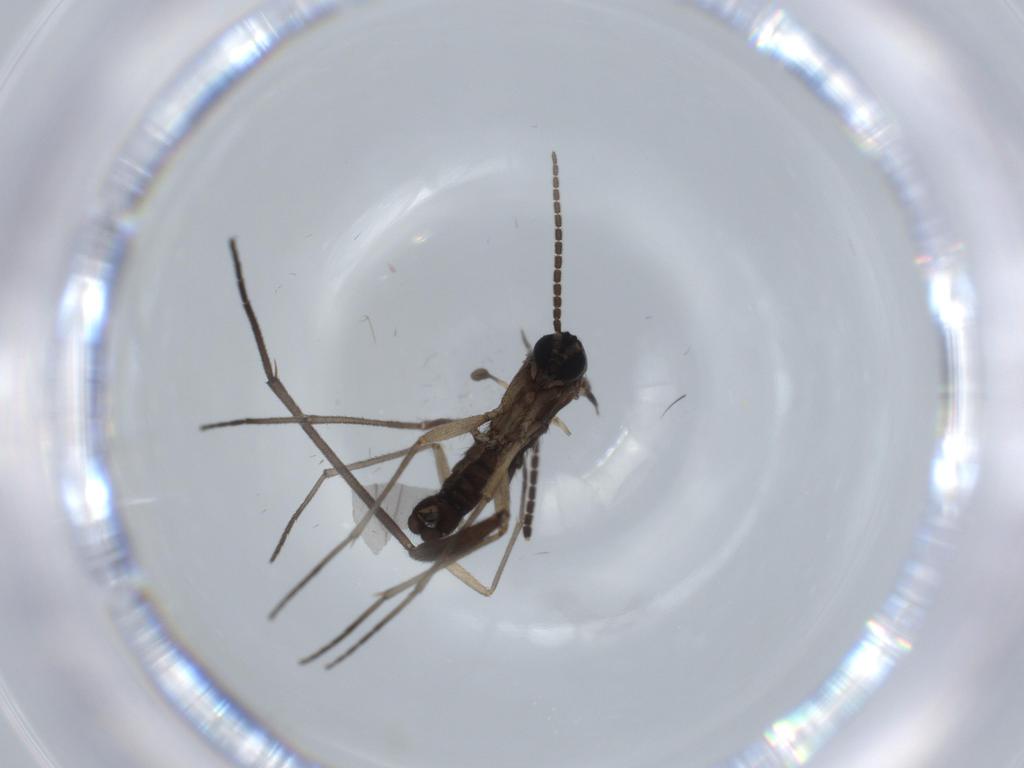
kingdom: Animalia
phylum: Arthropoda
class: Insecta
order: Diptera
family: Sciaridae
